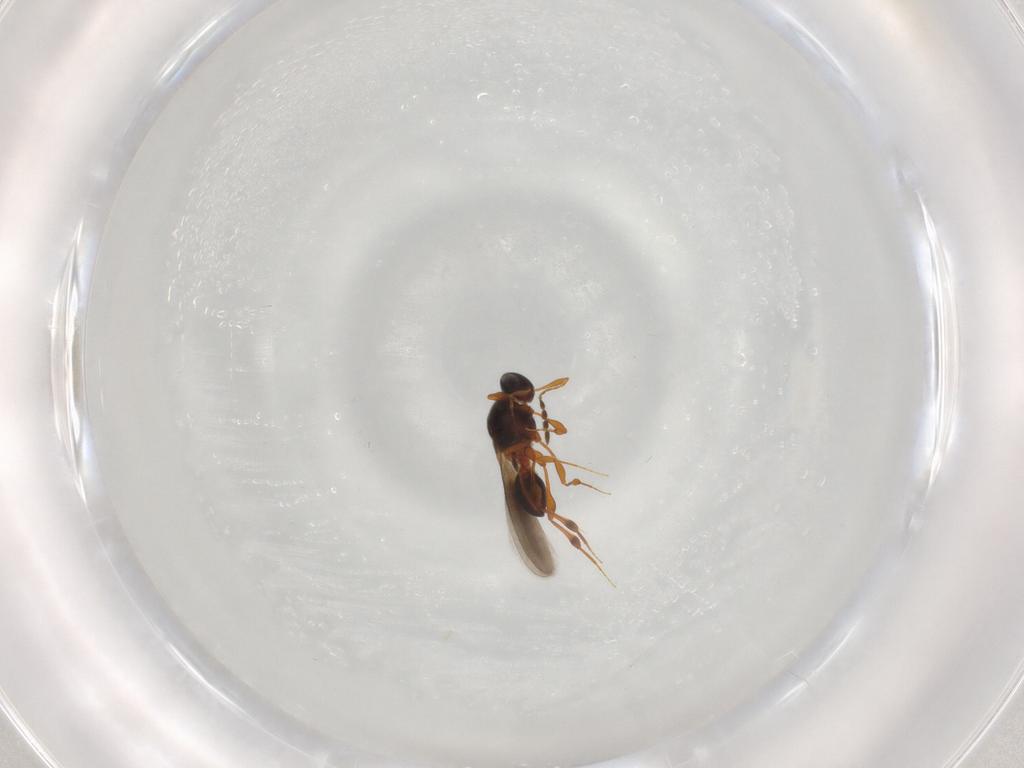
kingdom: Animalia
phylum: Arthropoda
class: Insecta
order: Hymenoptera
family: Platygastridae
